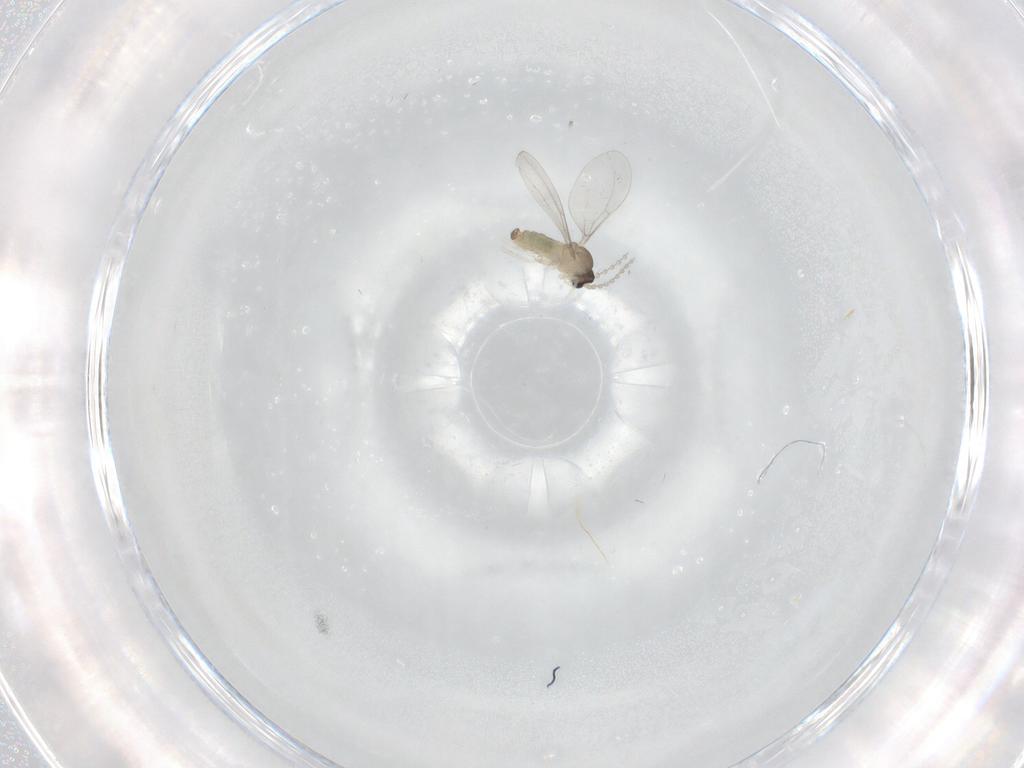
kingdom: Animalia
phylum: Arthropoda
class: Insecta
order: Diptera
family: Cecidomyiidae
